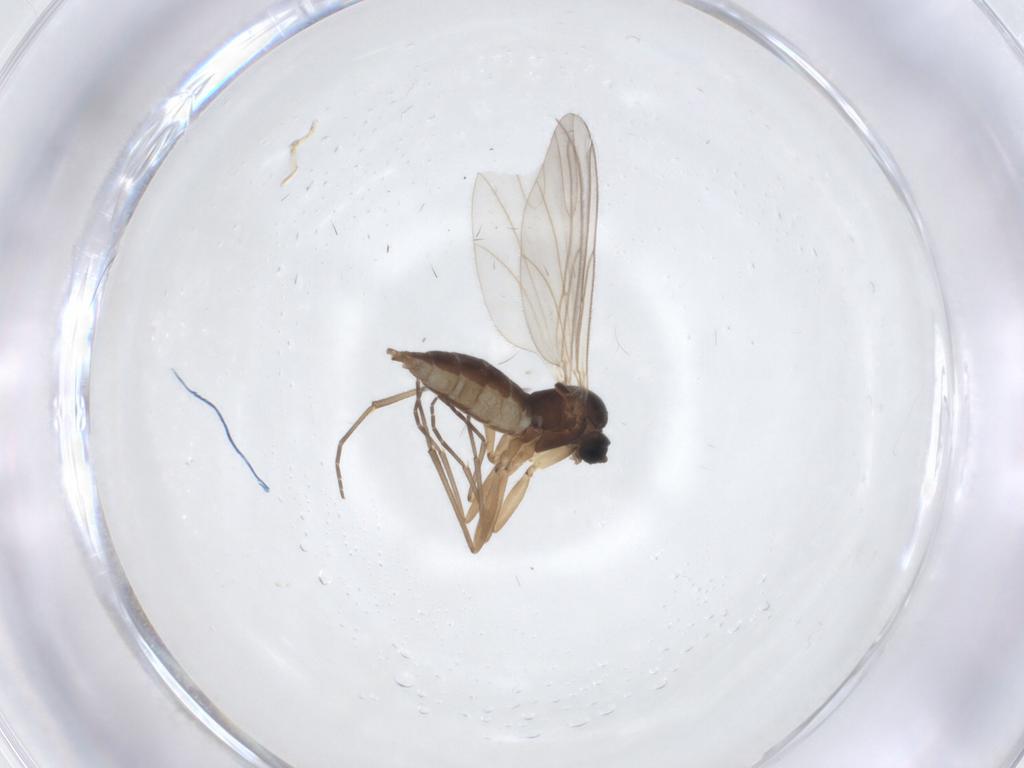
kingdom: Animalia
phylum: Arthropoda
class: Insecta
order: Diptera
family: Sciaridae
